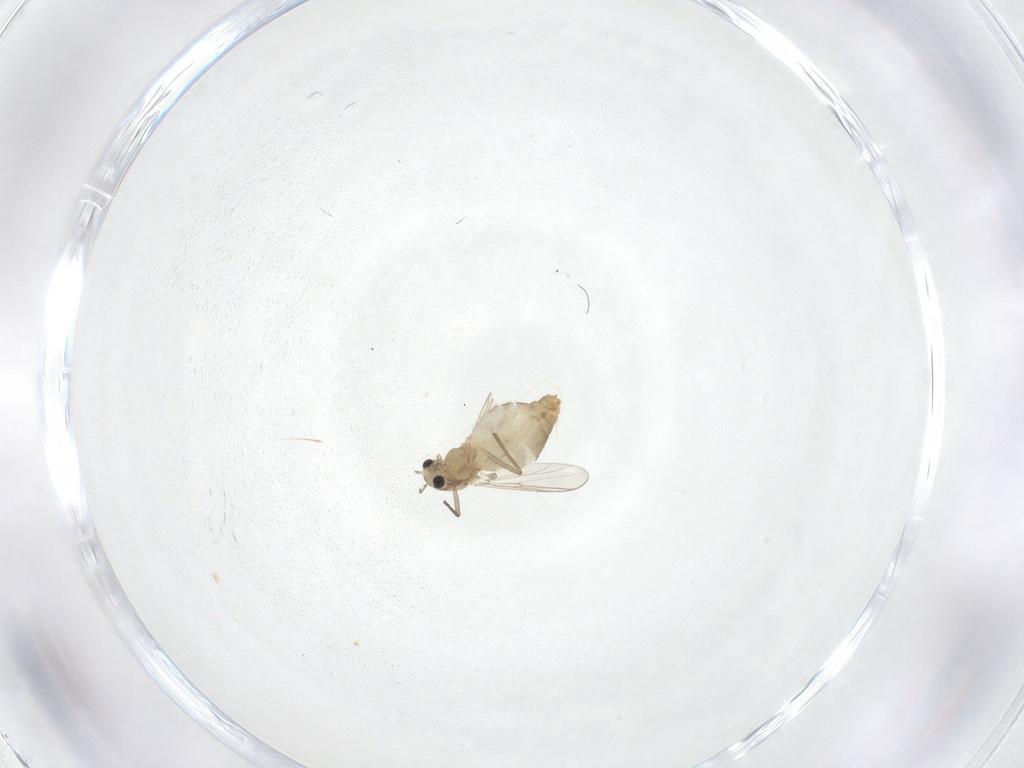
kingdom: Animalia
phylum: Arthropoda
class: Insecta
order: Diptera
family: Chironomidae
